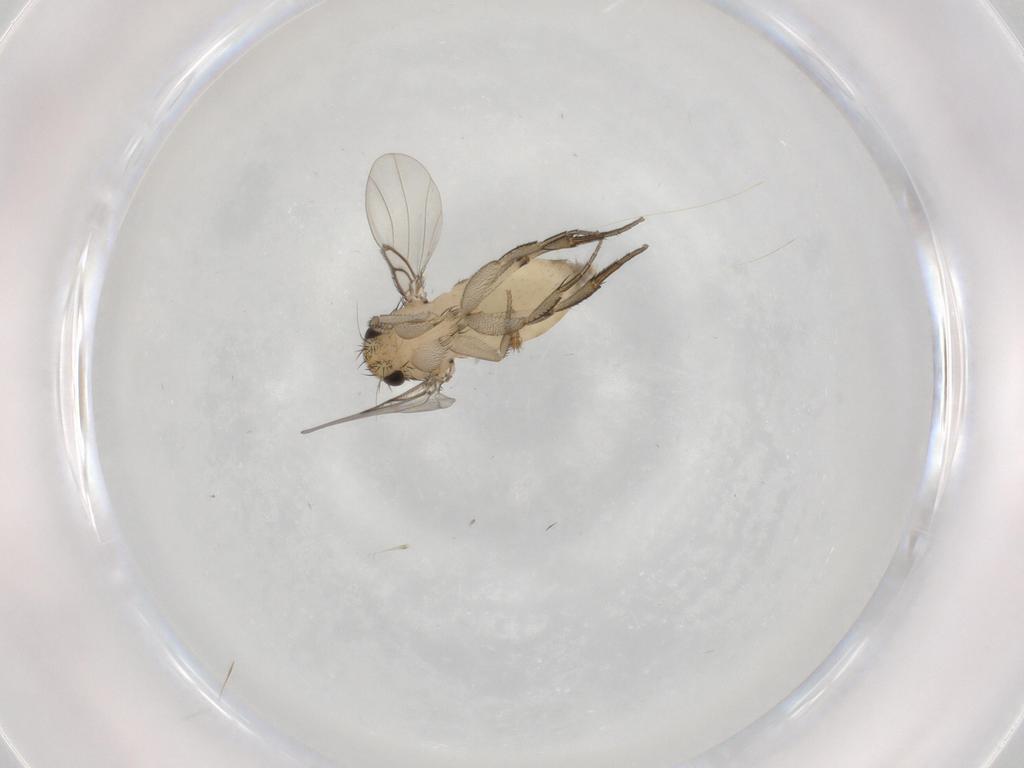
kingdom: Animalia
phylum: Arthropoda
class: Insecta
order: Diptera
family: Phoridae
